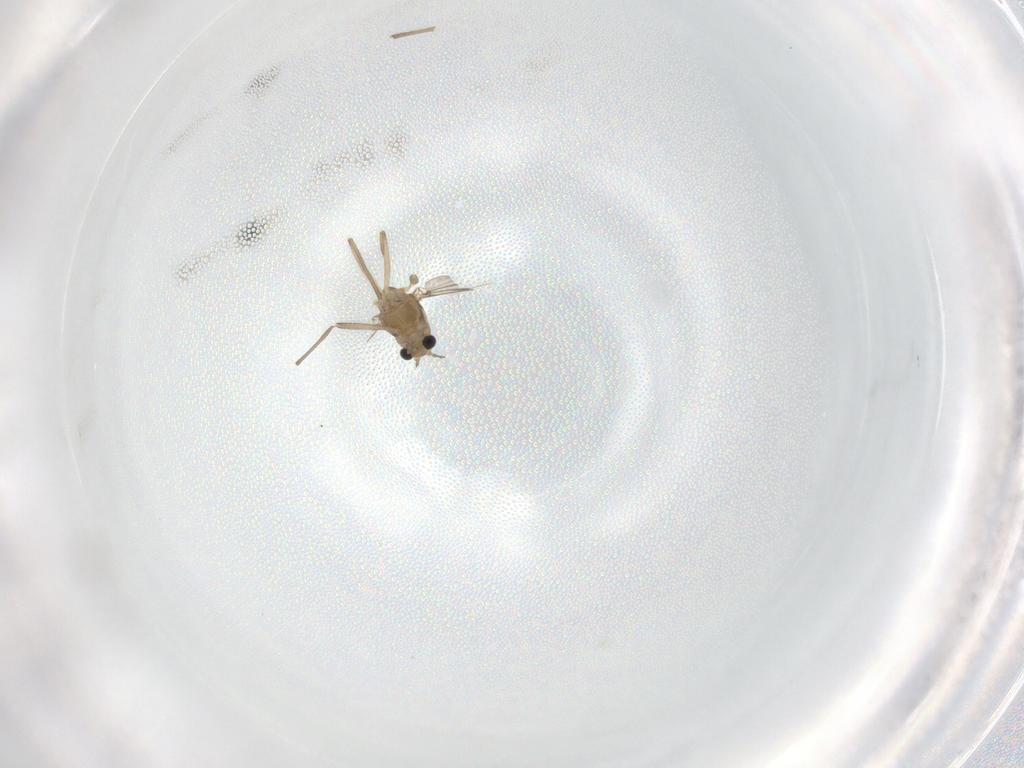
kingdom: Animalia
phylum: Arthropoda
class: Insecta
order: Diptera
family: Chironomidae
